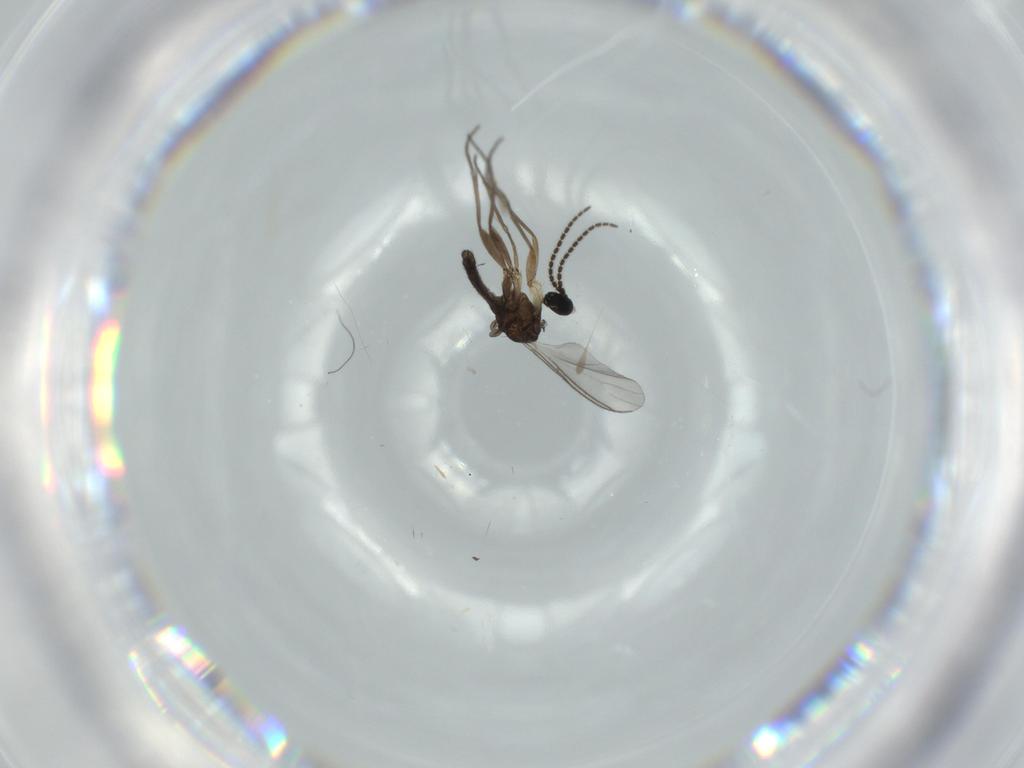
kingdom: Animalia
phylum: Arthropoda
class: Insecta
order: Diptera
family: Sciaridae
